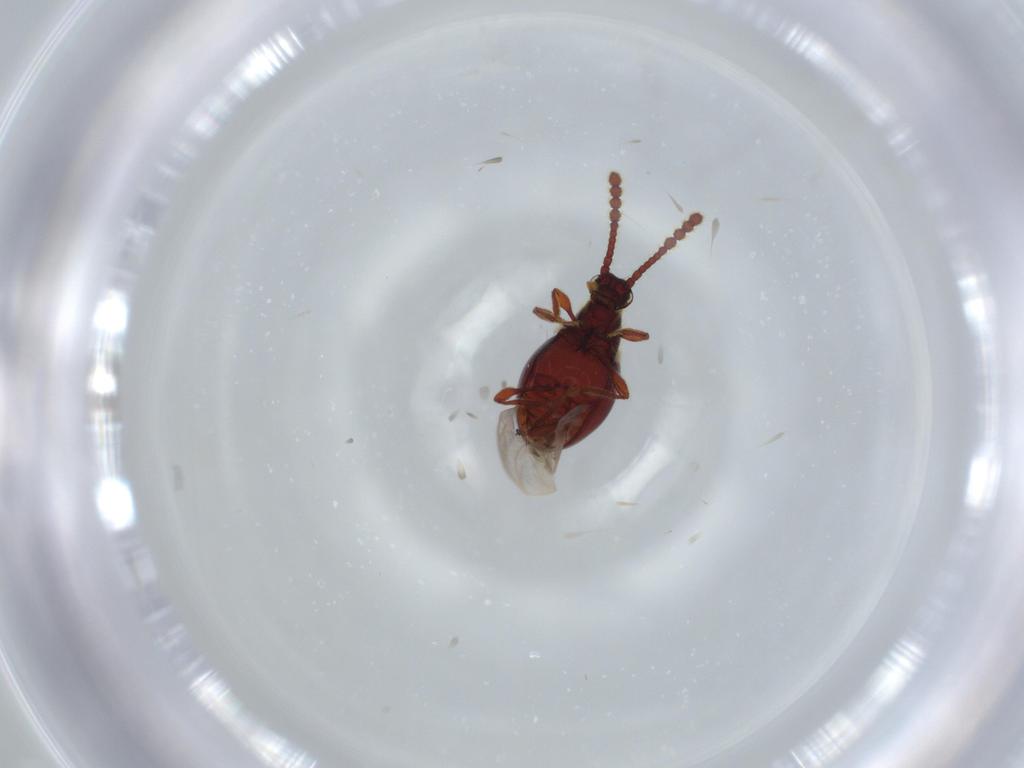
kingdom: Animalia
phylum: Arthropoda
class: Insecta
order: Coleoptera
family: Staphylinidae
